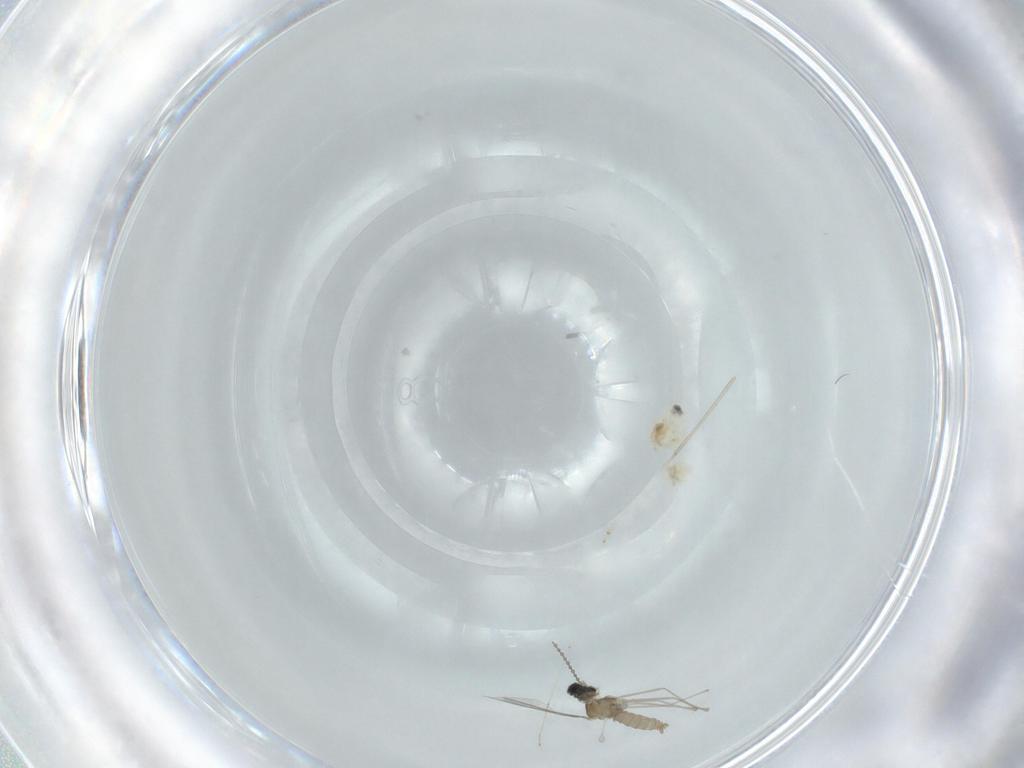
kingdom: Animalia
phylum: Arthropoda
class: Insecta
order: Diptera
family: Cecidomyiidae
